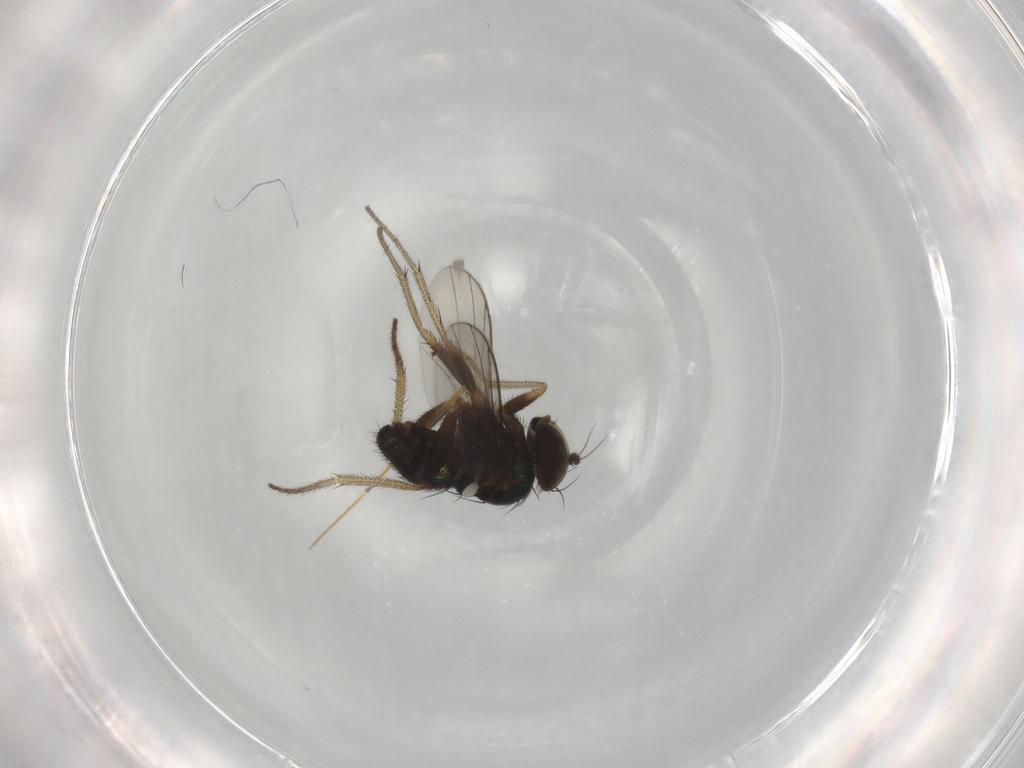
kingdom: Animalia
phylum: Arthropoda
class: Insecta
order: Diptera
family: Dolichopodidae
